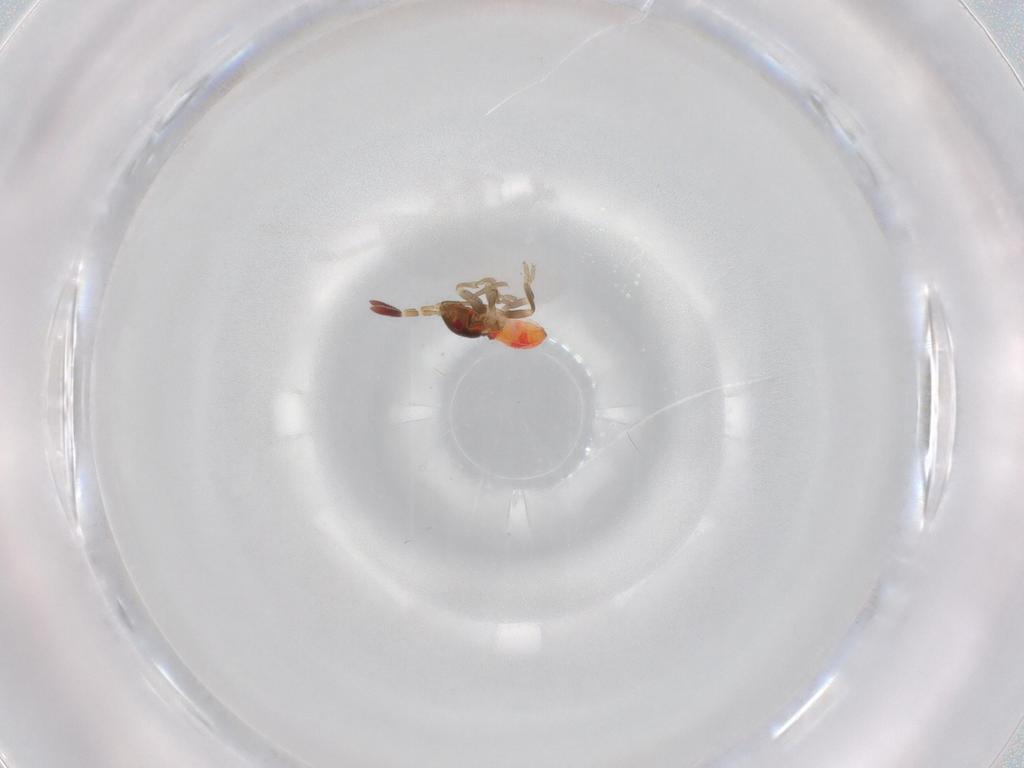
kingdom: Animalia
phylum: Arthropoda
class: Insecta
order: Hemiptera
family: Rhyparochromidae
